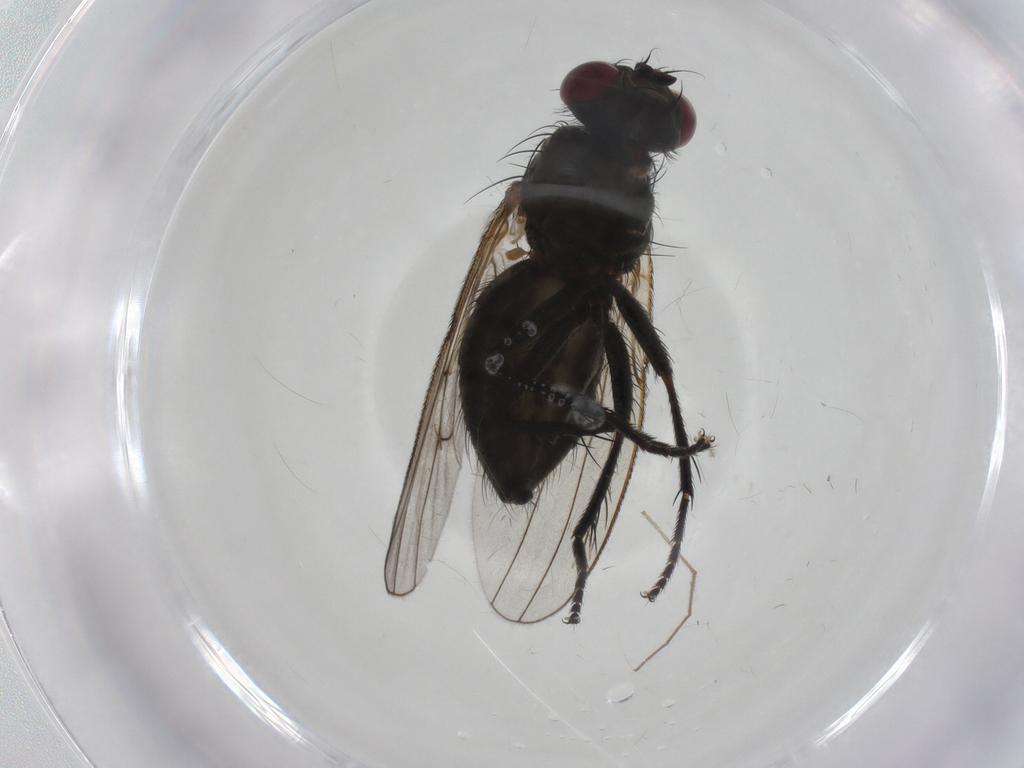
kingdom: Animalia
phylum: Arthropoda
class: Insecta
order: Diptera
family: Muscidae
